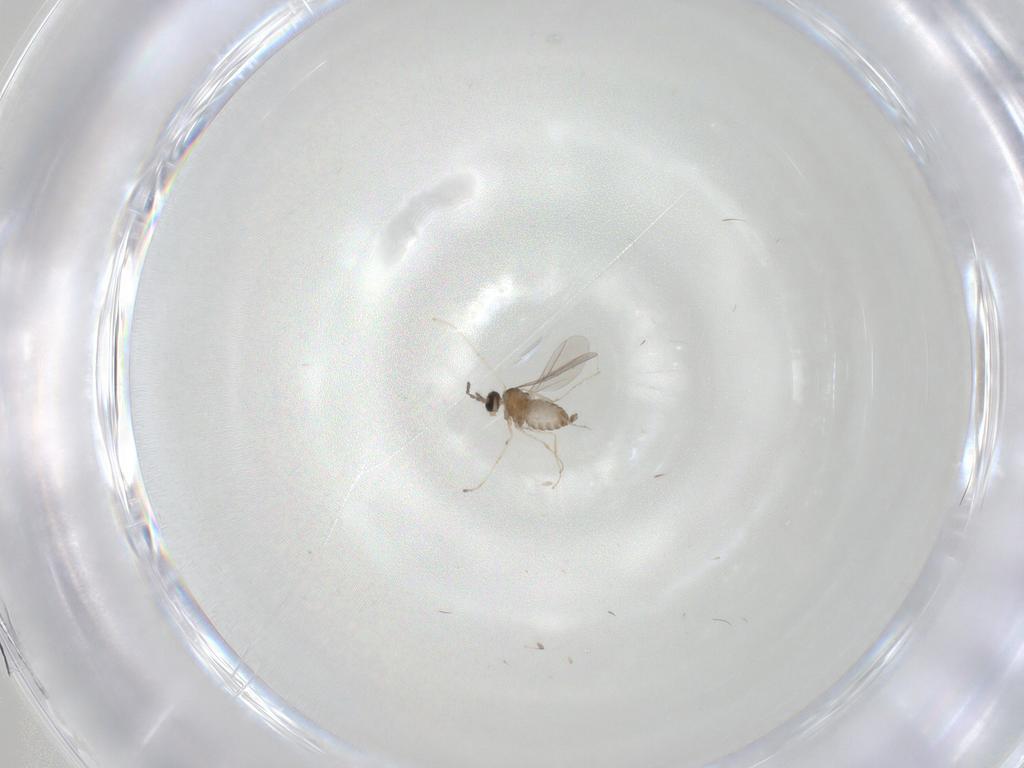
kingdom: Animalia
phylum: Arthropoda
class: Insecta
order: Diptera
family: Cecidomyiidae
